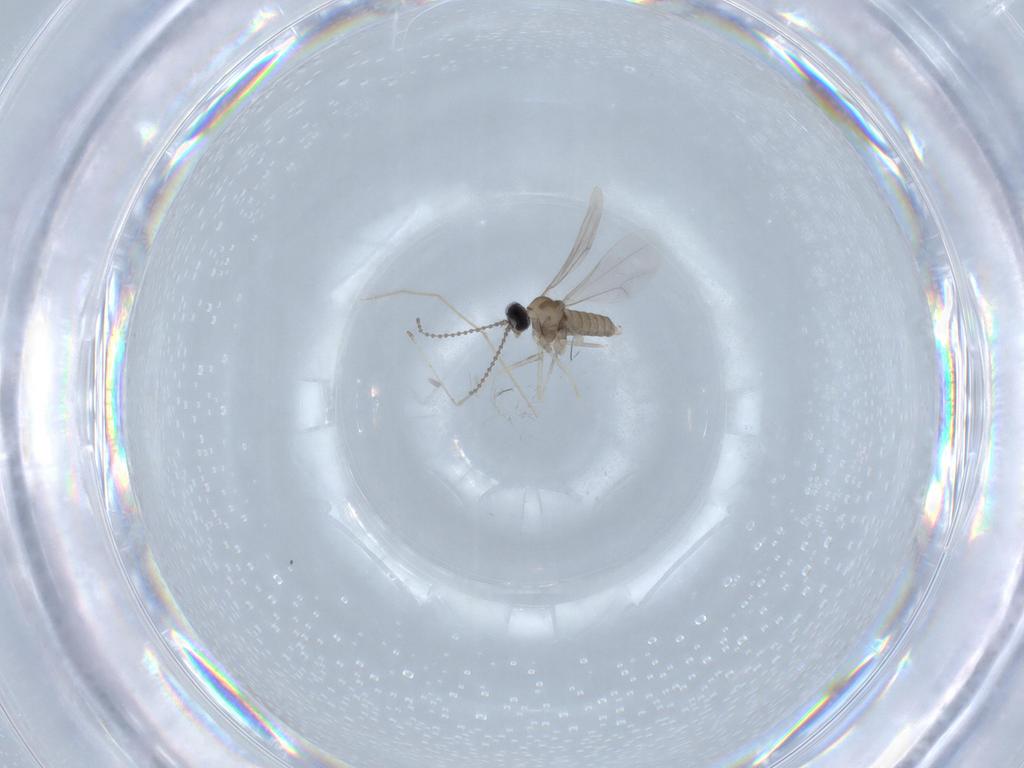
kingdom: Animalia
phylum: Arthropoda
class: Insecta
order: Diptera
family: Cecidomyiidae
